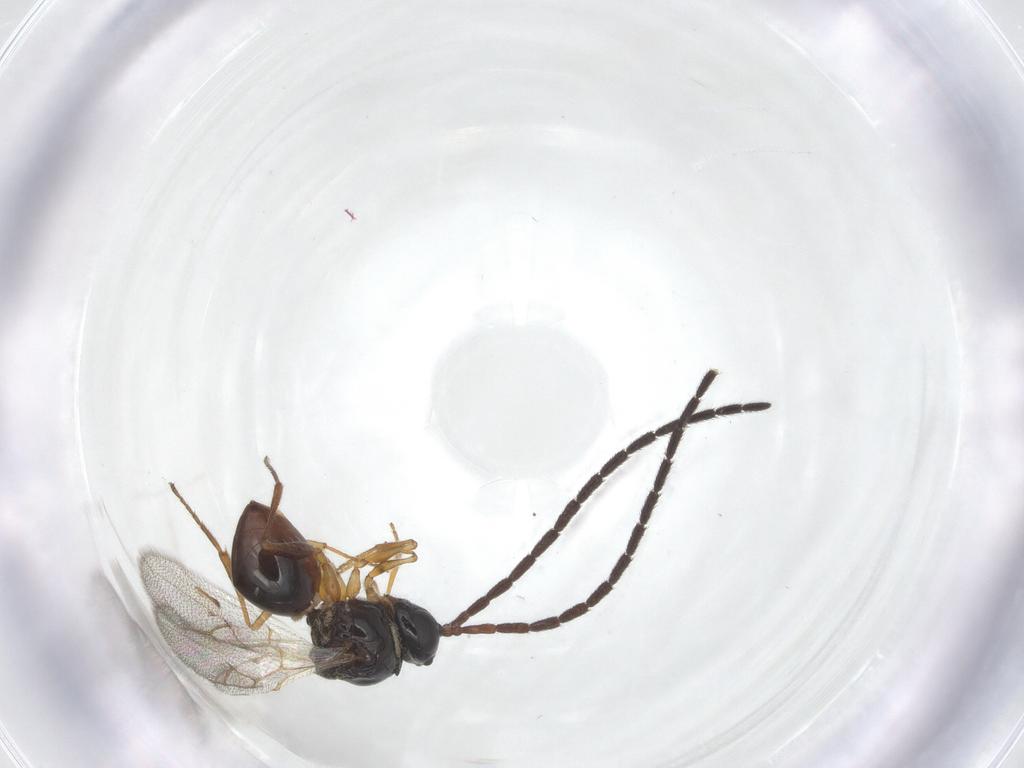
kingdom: Animalia
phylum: Arthropoda
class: Insecta
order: Hymenoptera
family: Figitidae
